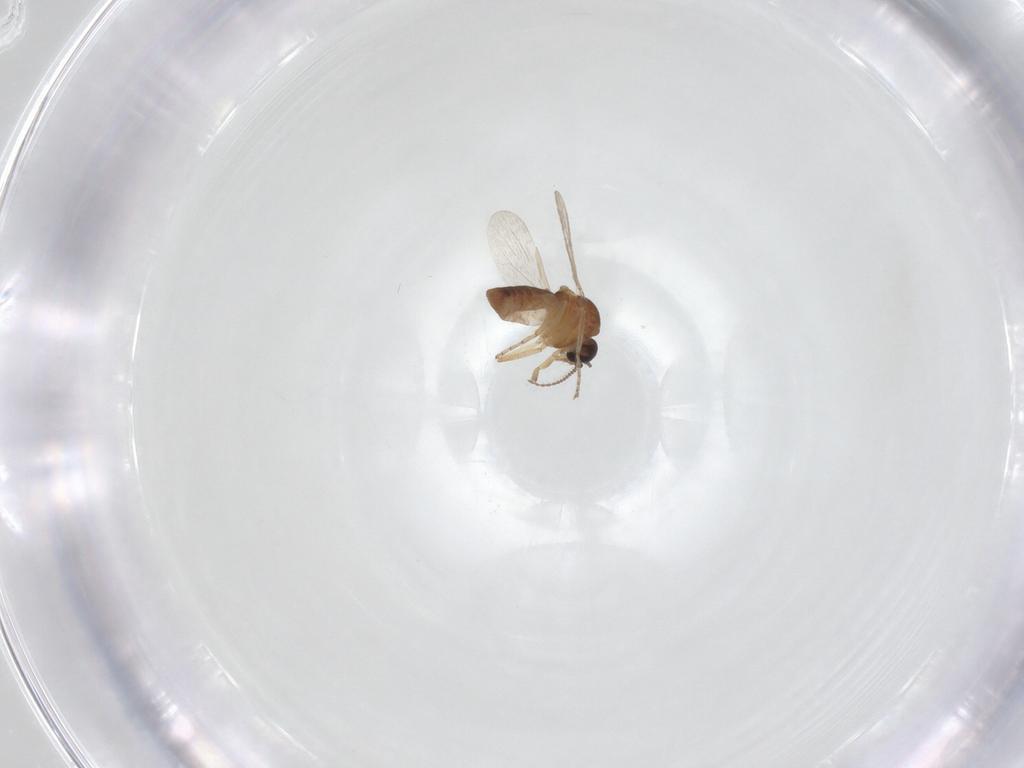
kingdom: Animalia
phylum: Arthropoda
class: Insecta
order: Diptera
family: Ceratopogonidae
